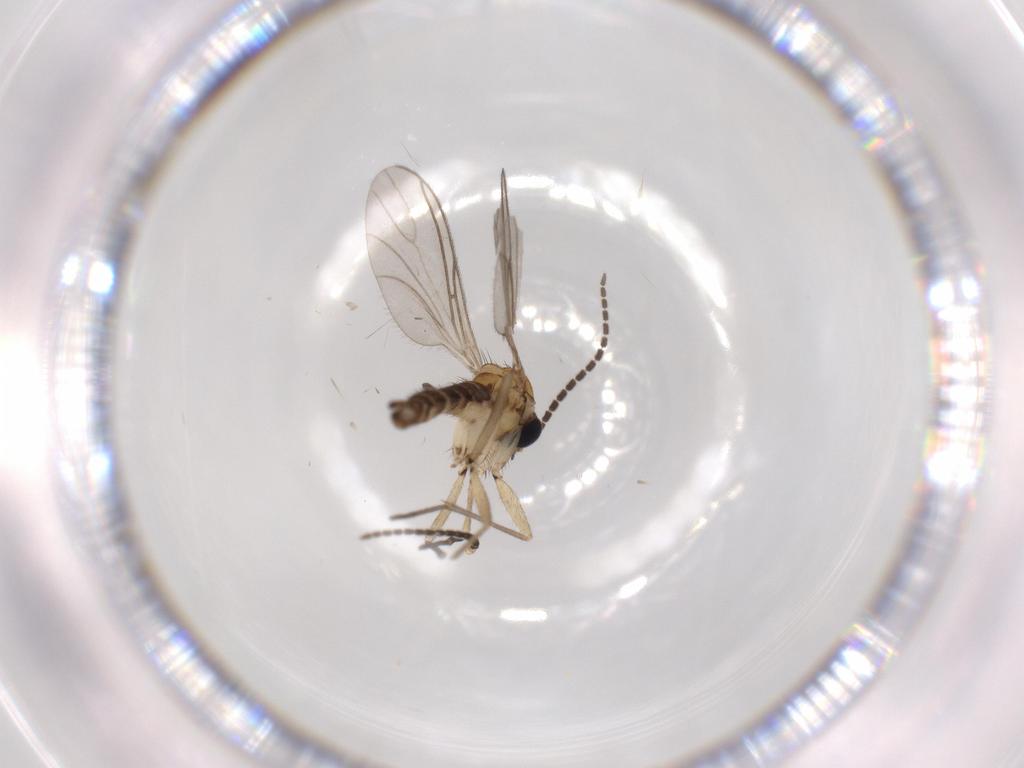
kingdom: Animalia
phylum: Arthropoda
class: Insecta
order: Diptera
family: Sciaridae
